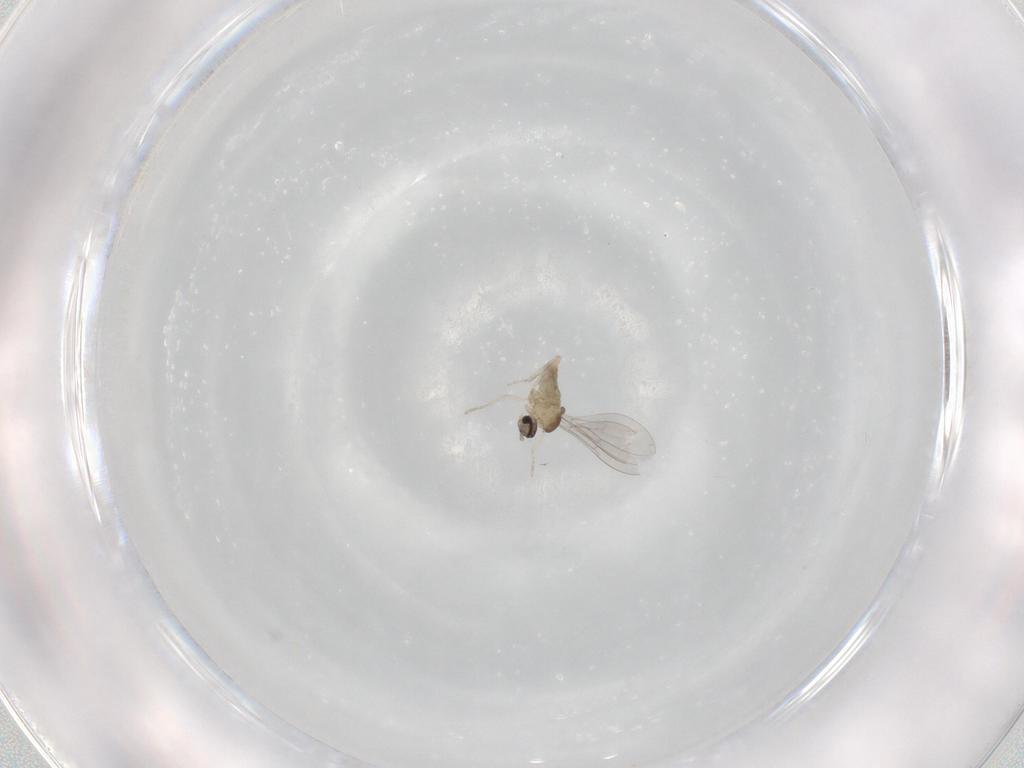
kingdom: Animalia
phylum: Arthropoda
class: Insecta
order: Diptera
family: Cecidomyiidae
